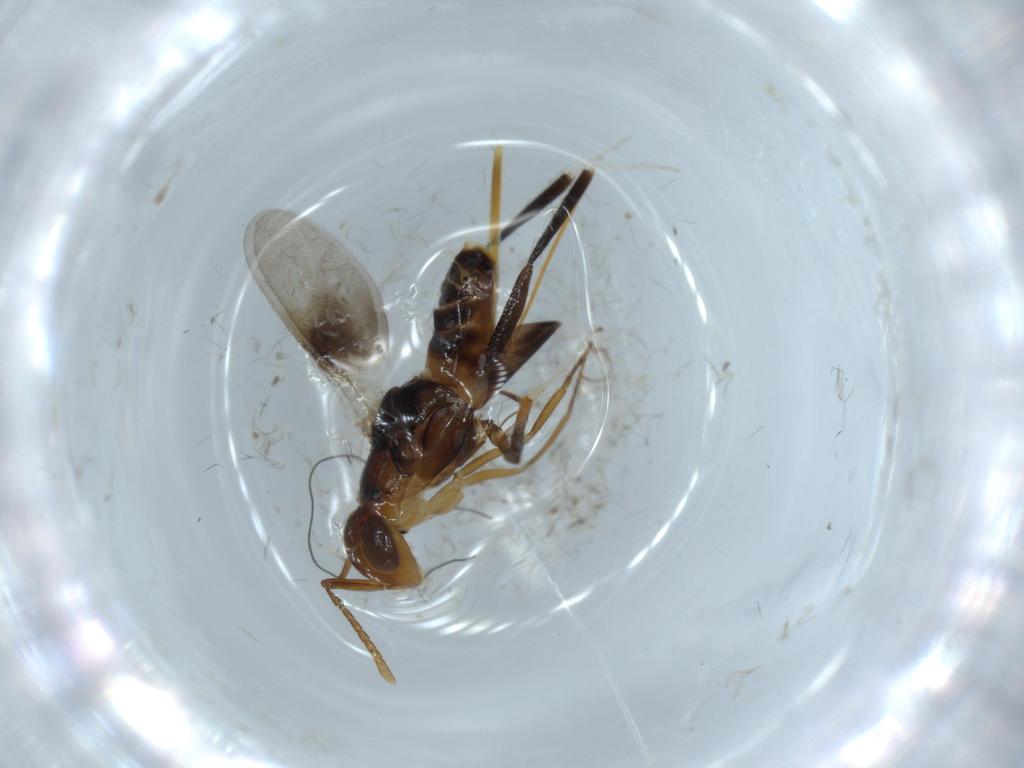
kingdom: Animalia
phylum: Arthropoda
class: Insecta
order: Hymenoptera
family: Encyrtidae
